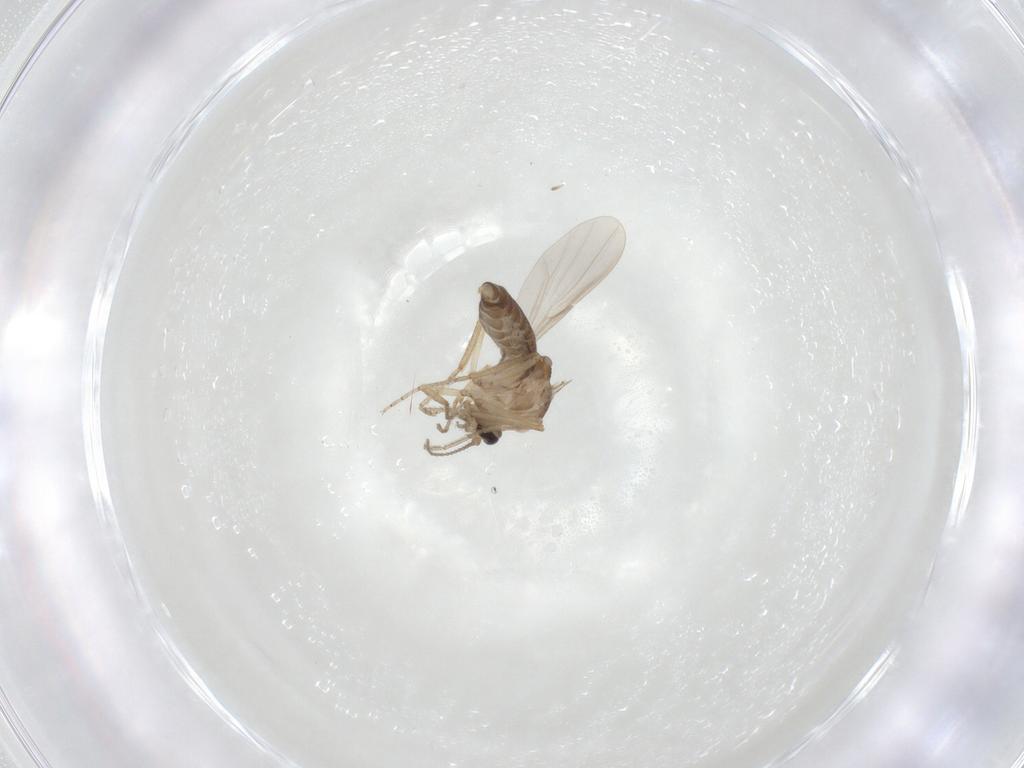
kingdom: Animalia
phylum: Arthropoda
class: Insecta
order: Diptera
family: Ceratopogonidae
